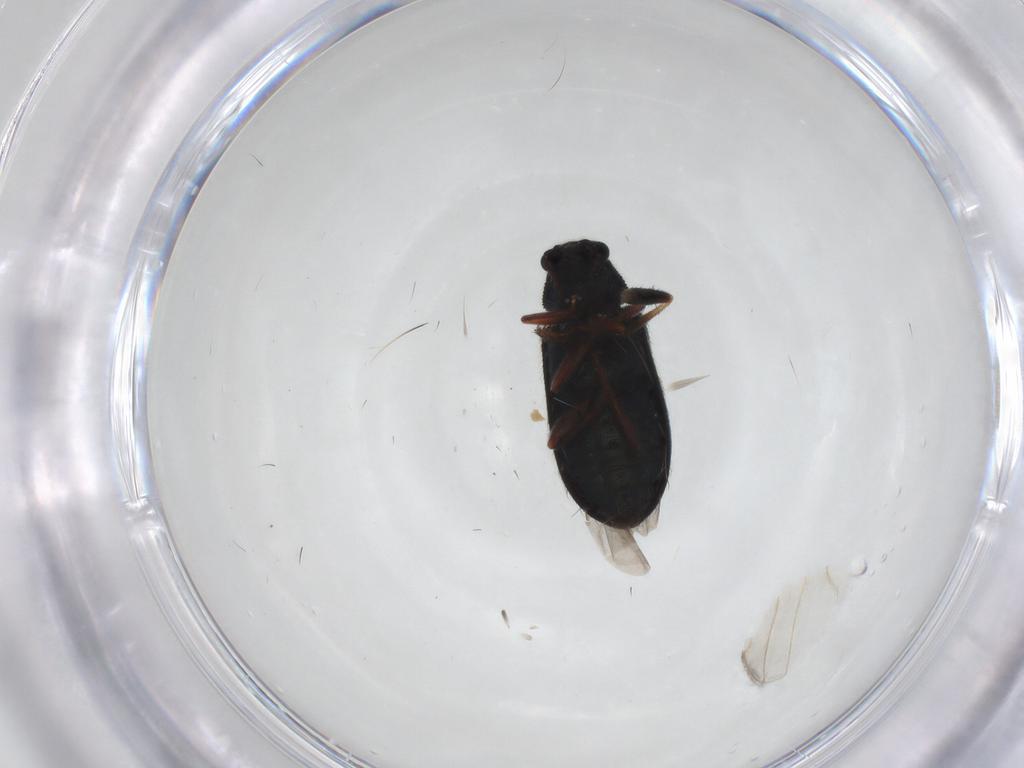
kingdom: Animalia
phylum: Arthropoda
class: Insecta
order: Coleoptera
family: Melyridae
